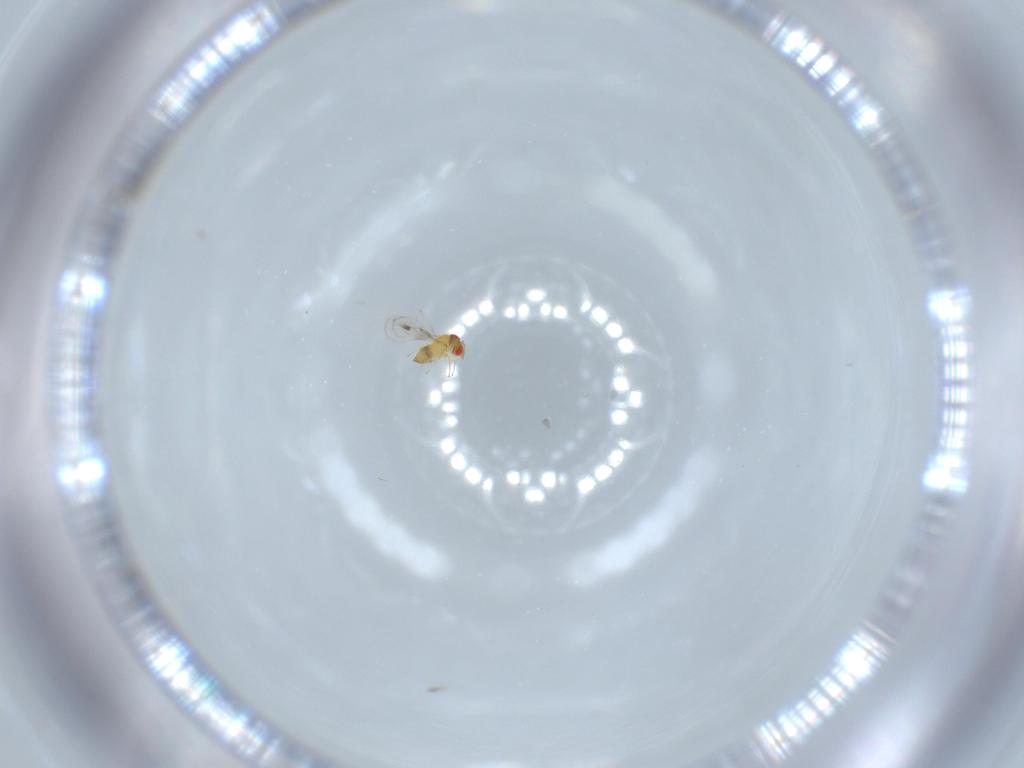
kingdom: Animalia
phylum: Arthropoda
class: Insecta
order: Hymenoptera
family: Trichogrammatidae
